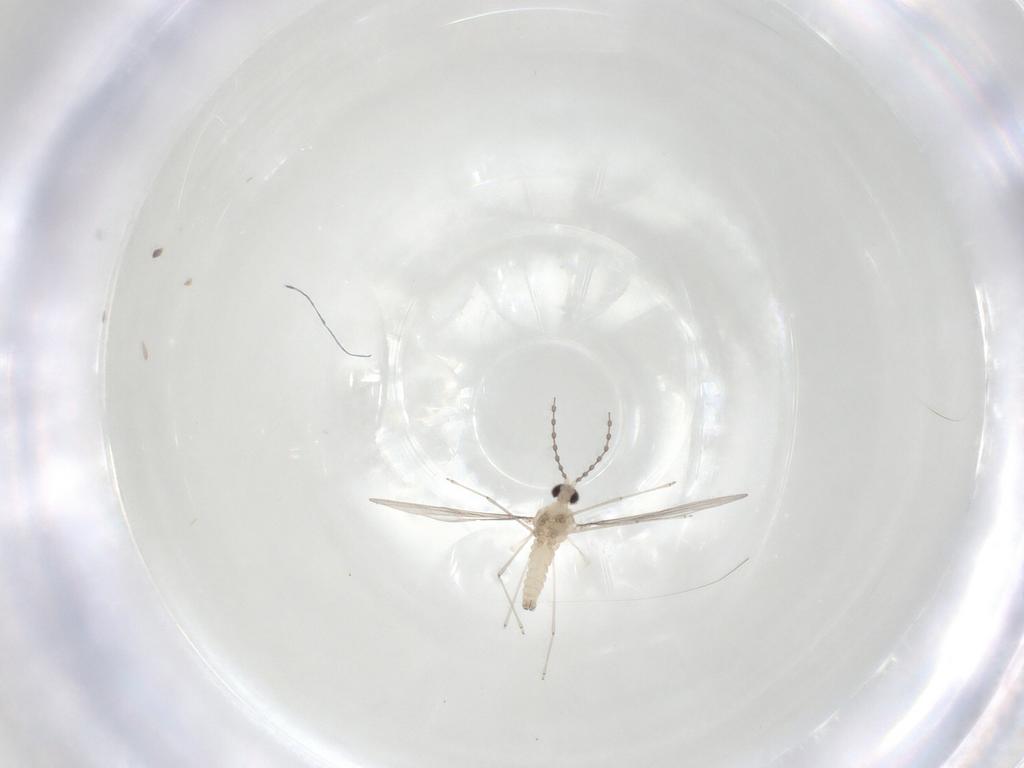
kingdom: Animalia
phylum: Arthropoda
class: Insecta
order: Diptera
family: Cecidomyiidae
